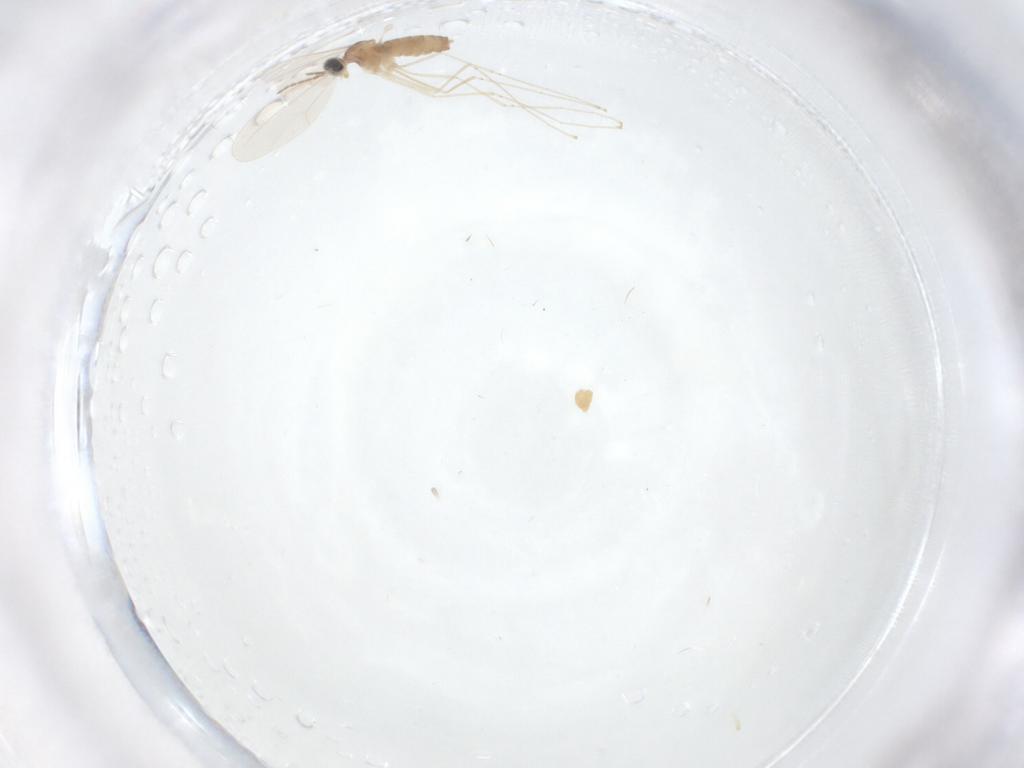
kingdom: Animalia
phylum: Arthropoda
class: Insecta
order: Diptera
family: Cecidomyiidae
